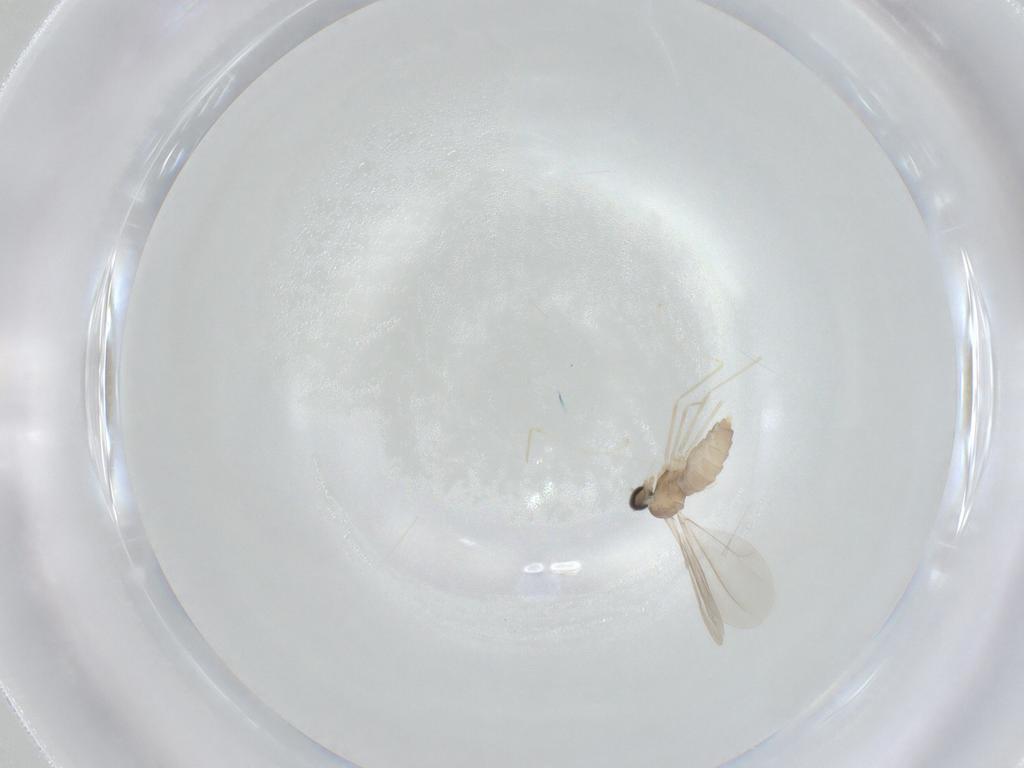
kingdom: Animalia
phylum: Arthropoda
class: Insecta
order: Diptera
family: Cecidomyiidae
